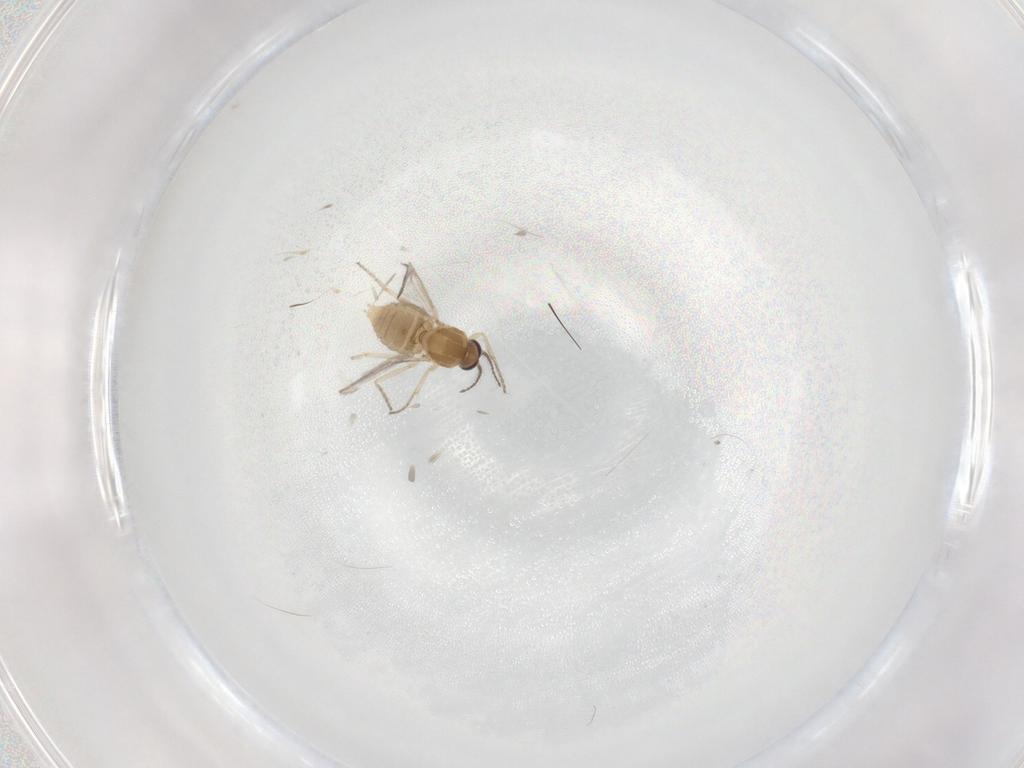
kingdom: Animalia
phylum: Arthropoda
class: Insecta
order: Diptera
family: Ceratopogonidae
